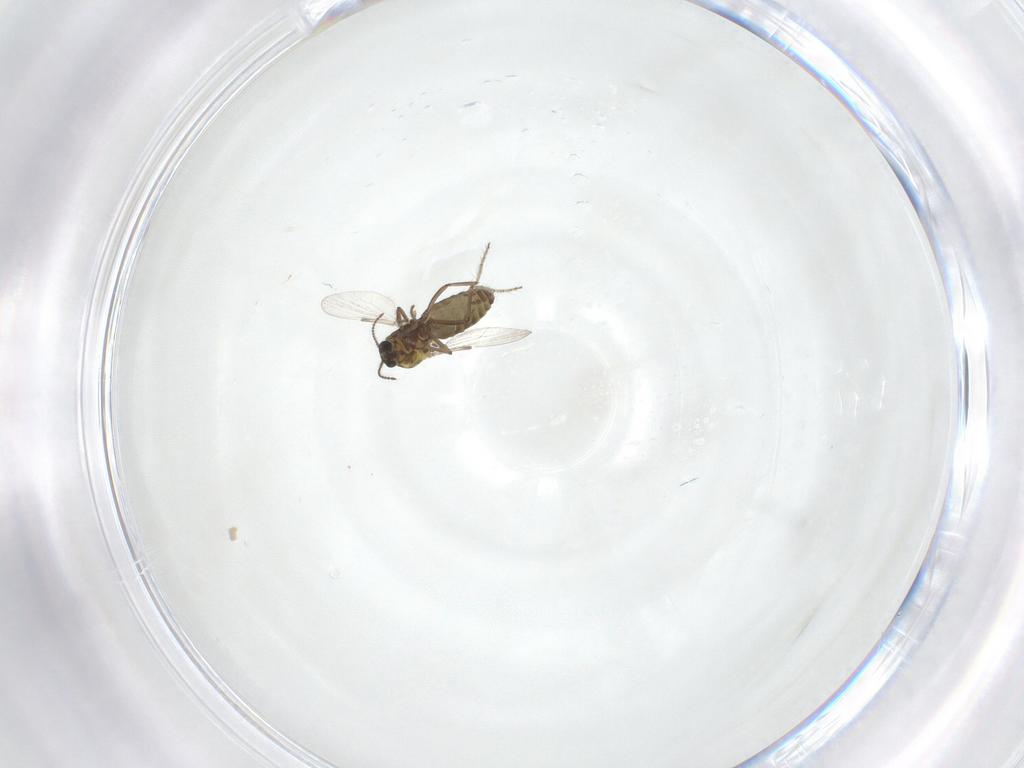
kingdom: Animalia
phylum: Arthropoda
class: Insecta
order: Diptera
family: Ceratopogonidae
